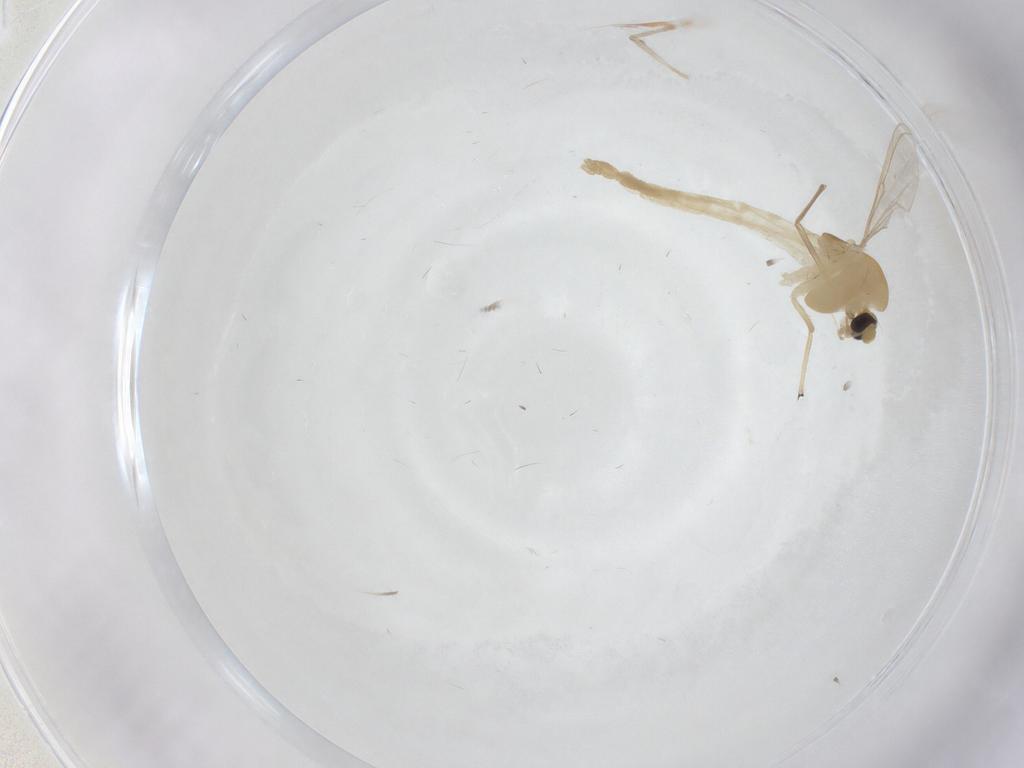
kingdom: Animalia
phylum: Arthropoda
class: Insecta
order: Diptera
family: Chironomidae
